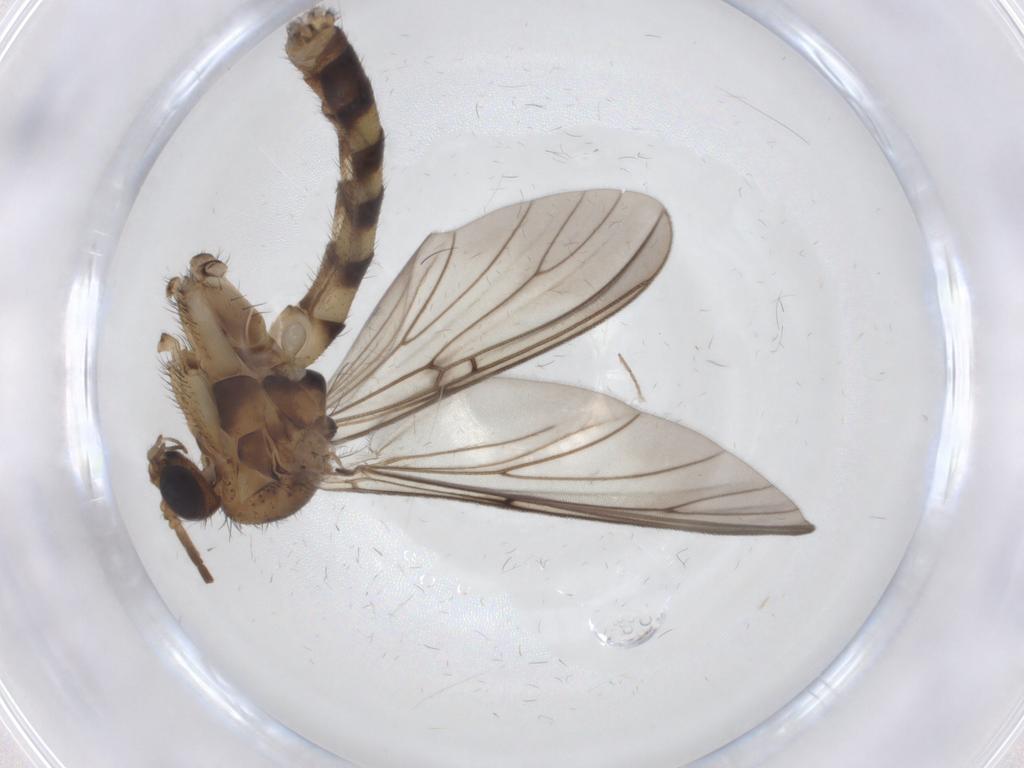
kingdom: Animalia
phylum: Arthropoda
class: Insecta
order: Diptera
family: Mycetophilidae
